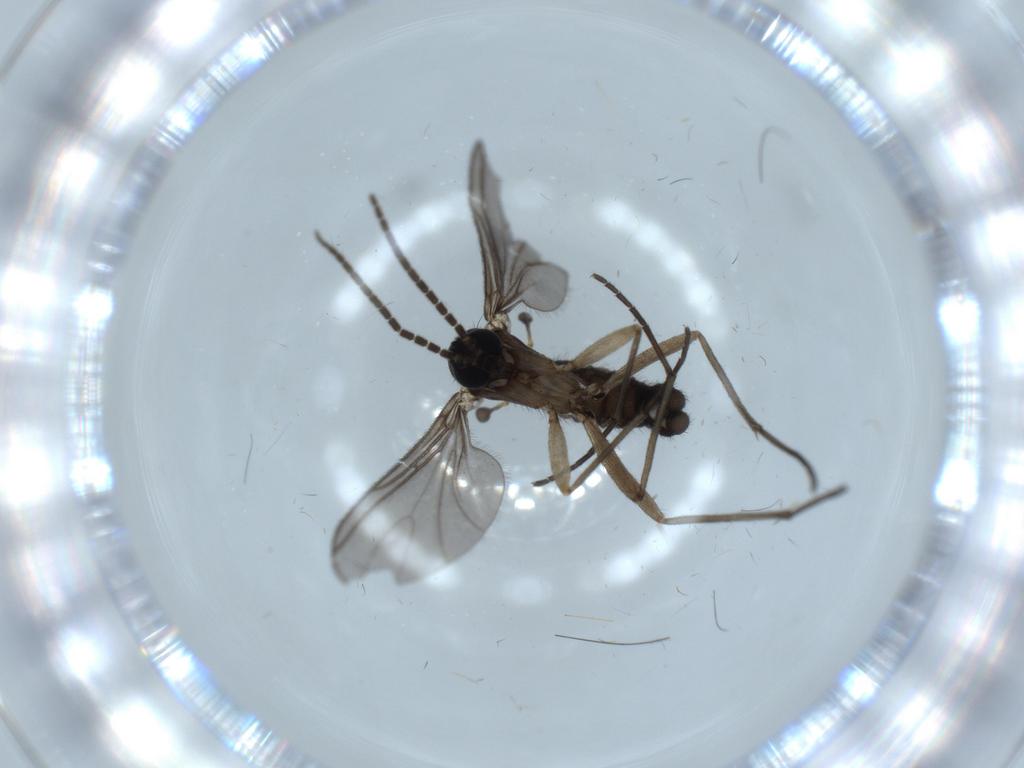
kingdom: Animalia
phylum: Arthropoda
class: Insecta
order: Diptera
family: Sciaridae
